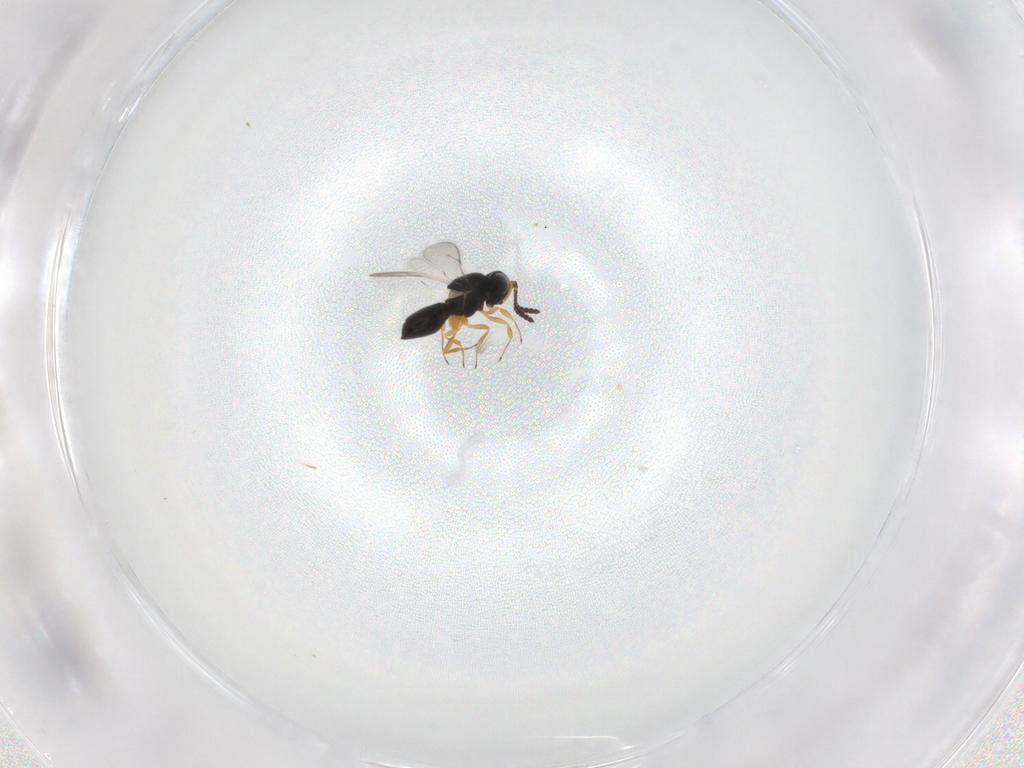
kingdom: Animalia
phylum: Arthropoda
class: Insecta
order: Hymenoptera
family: Scelionidae
